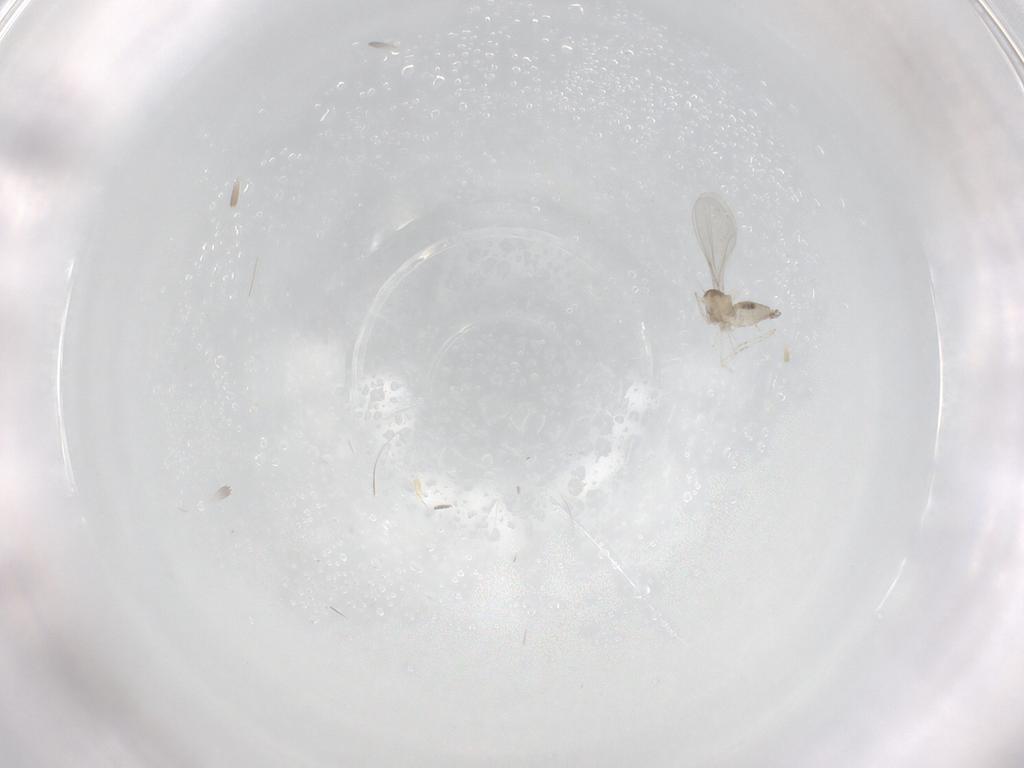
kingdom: Animalia
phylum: Arthropoda
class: Insecta
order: Diptera
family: Cecidomyiidae
